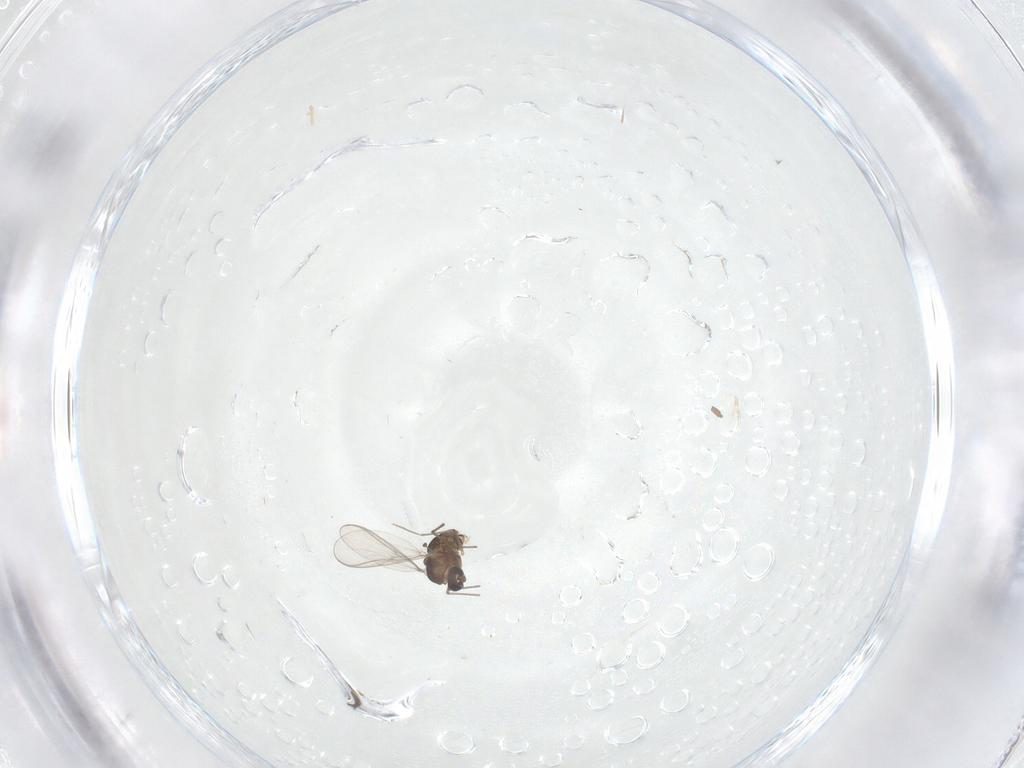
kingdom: Animalia
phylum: Arthropoda
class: Insecta
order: Diptera
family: Chironomidae
